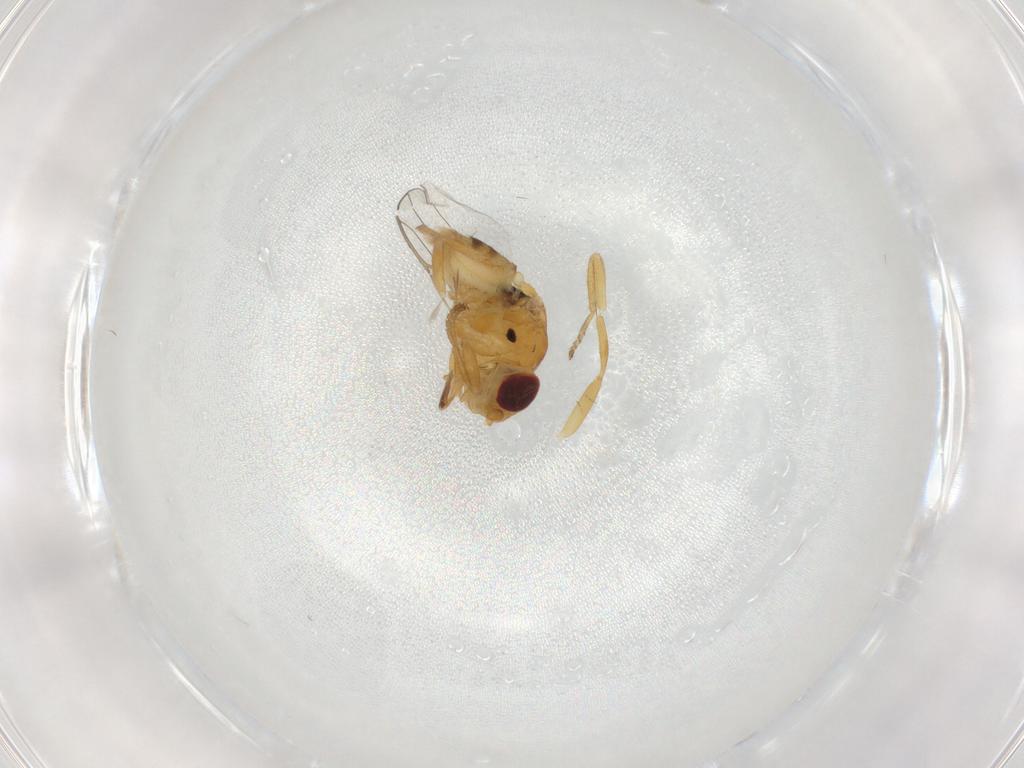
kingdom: Animalia
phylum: Arthropoda
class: Insecta
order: Diptera
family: Chloropidae
